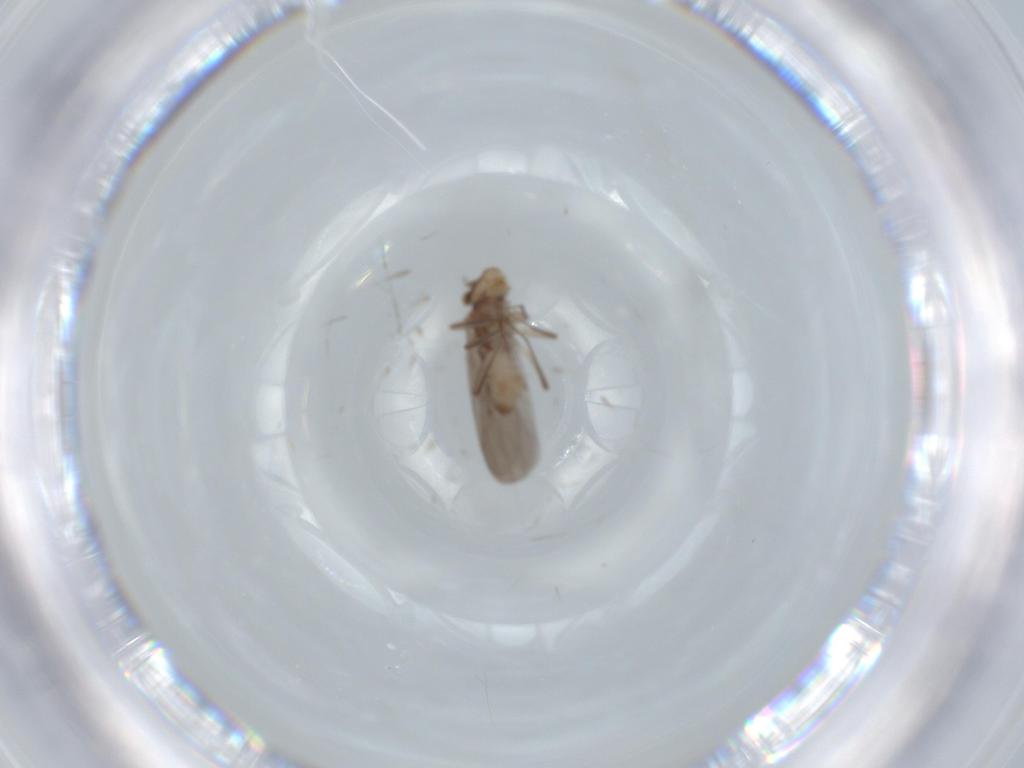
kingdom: Animalia
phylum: Arthropoda
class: Insecta
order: Psocodea
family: Lepidopsocidae
